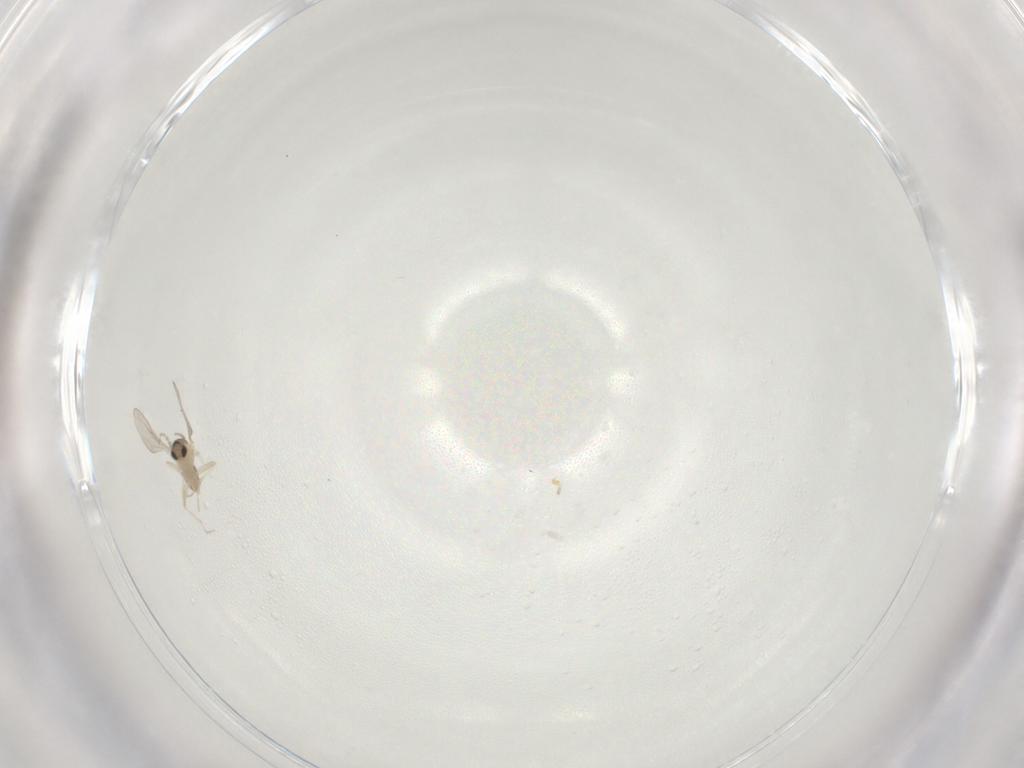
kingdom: Animalia
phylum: Arthropoda
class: Insecta
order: Diptera
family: Cecidomyiidae
